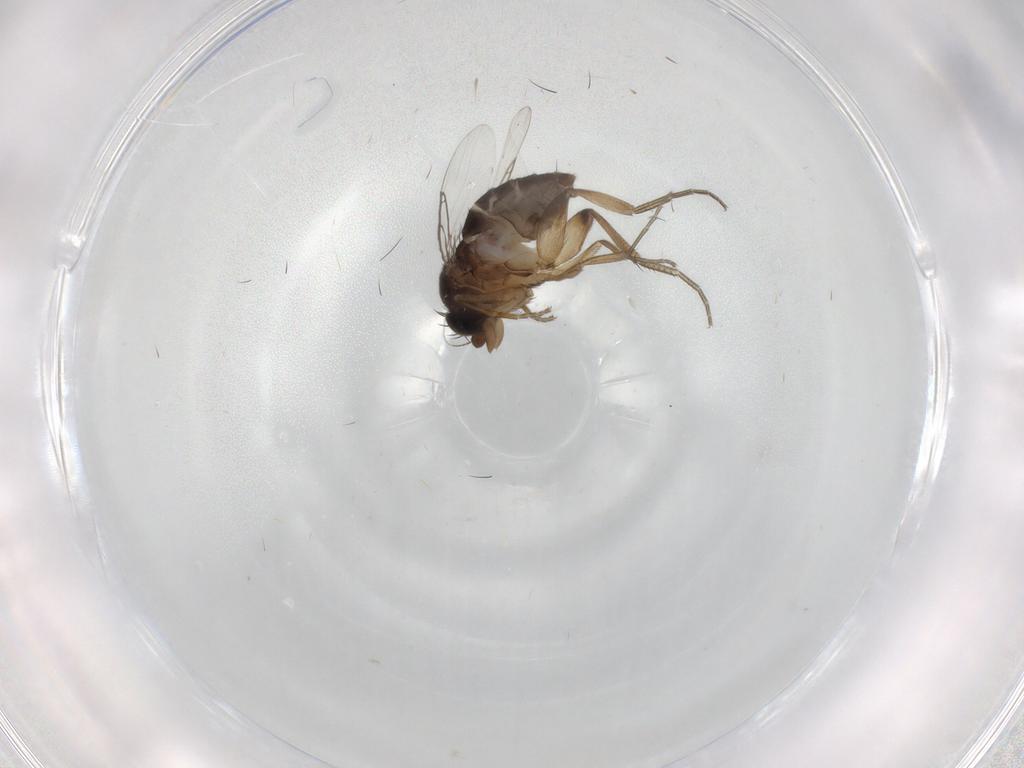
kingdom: Animalia
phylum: Arthropoda
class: Insecta
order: Diptera
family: Phoridae
